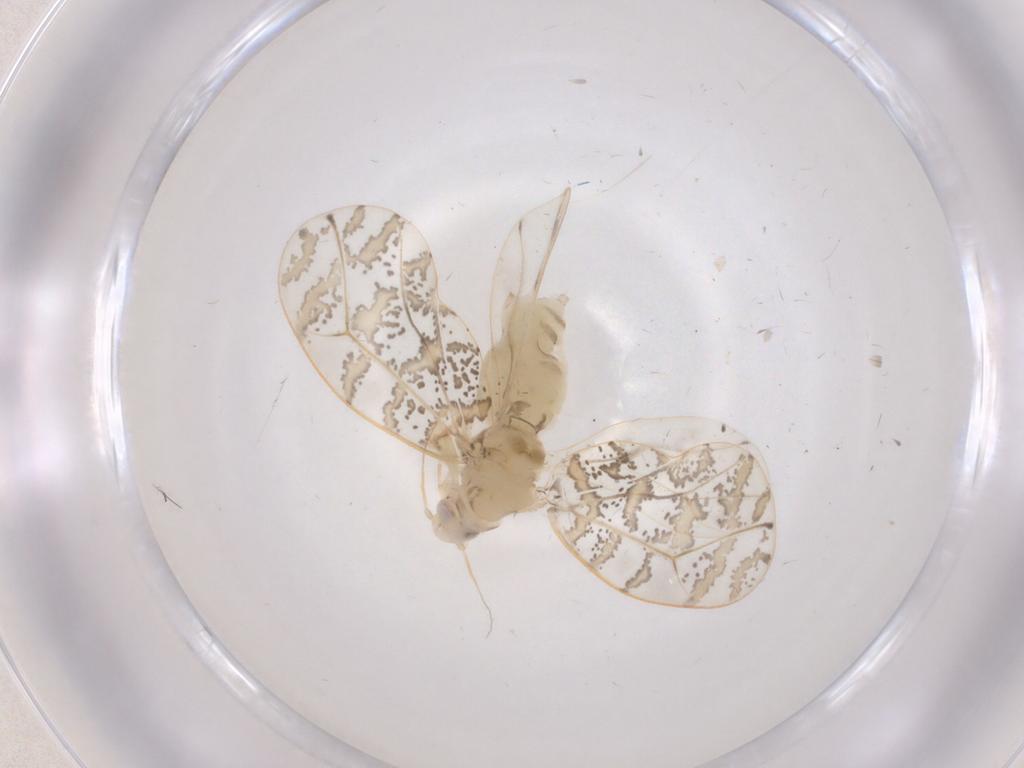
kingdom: Animalia
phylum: Arthropoda
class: Insecta
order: Hemiptera
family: Aleyrodidae
